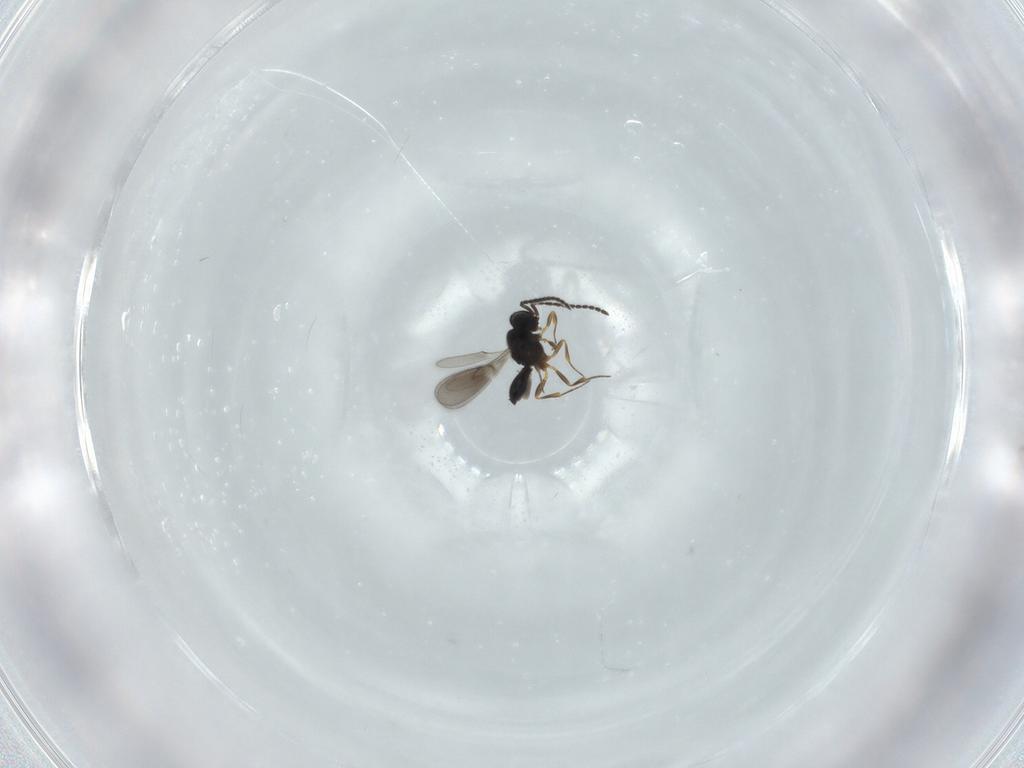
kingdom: Animalia
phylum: Arthropoda
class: Insecta
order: Hymenoptera
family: Scelionidae
